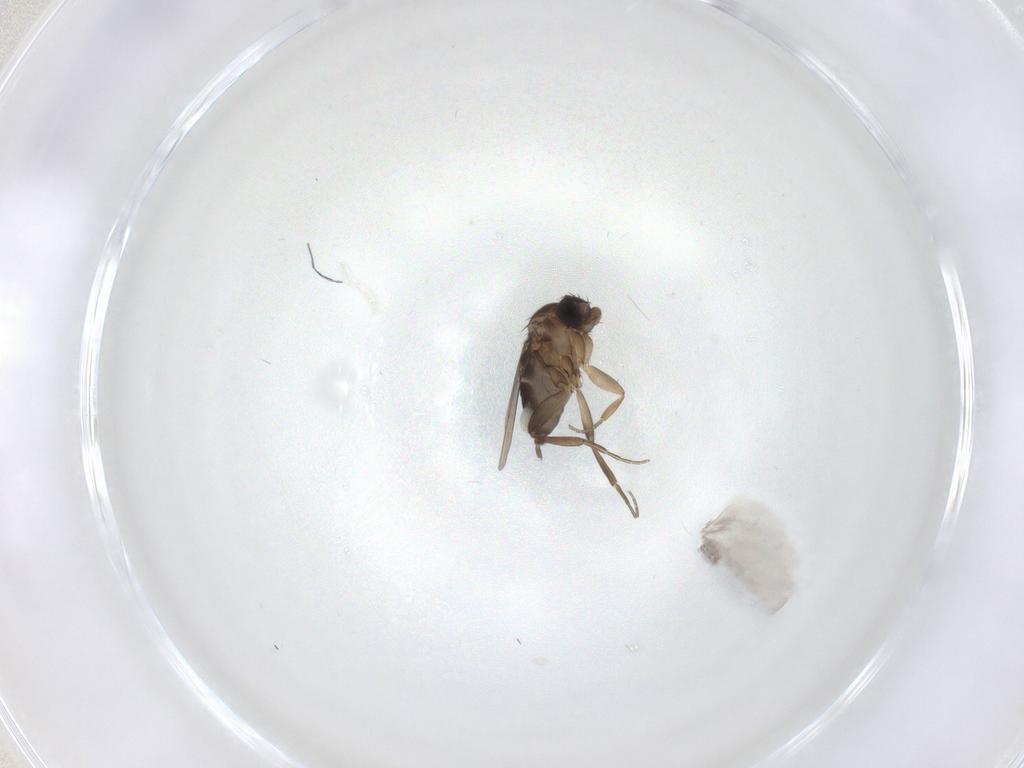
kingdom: Animalia
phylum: Arthropoda
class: Insecta
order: Diptera
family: Phoridae
